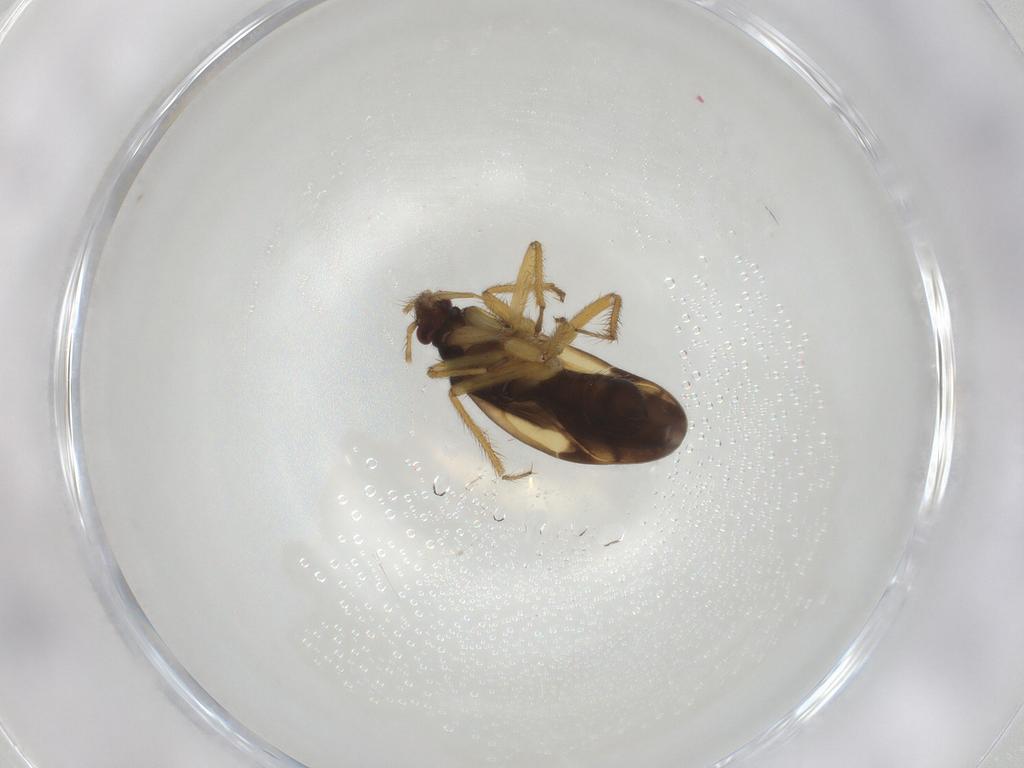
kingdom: Animalia
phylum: Arthropoda
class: Insecta
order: Hemiptera
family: Ceratocombidae
